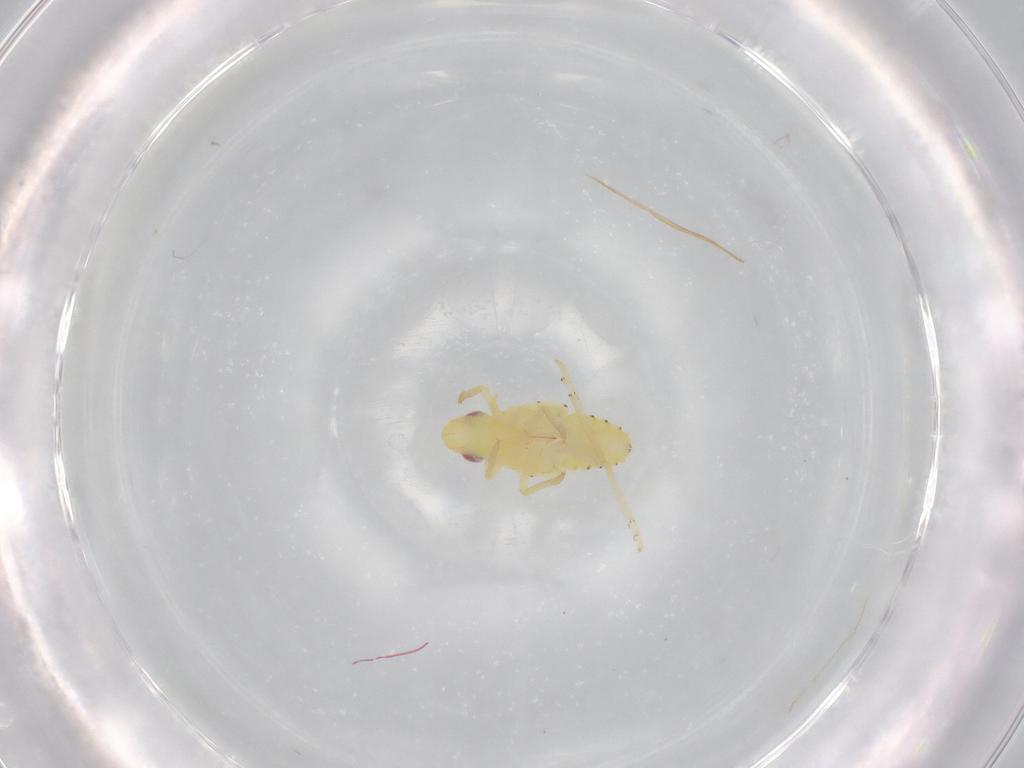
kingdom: Animalia
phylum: Arthropoda
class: Insecta
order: Hemiptera
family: Tropiduchidae
